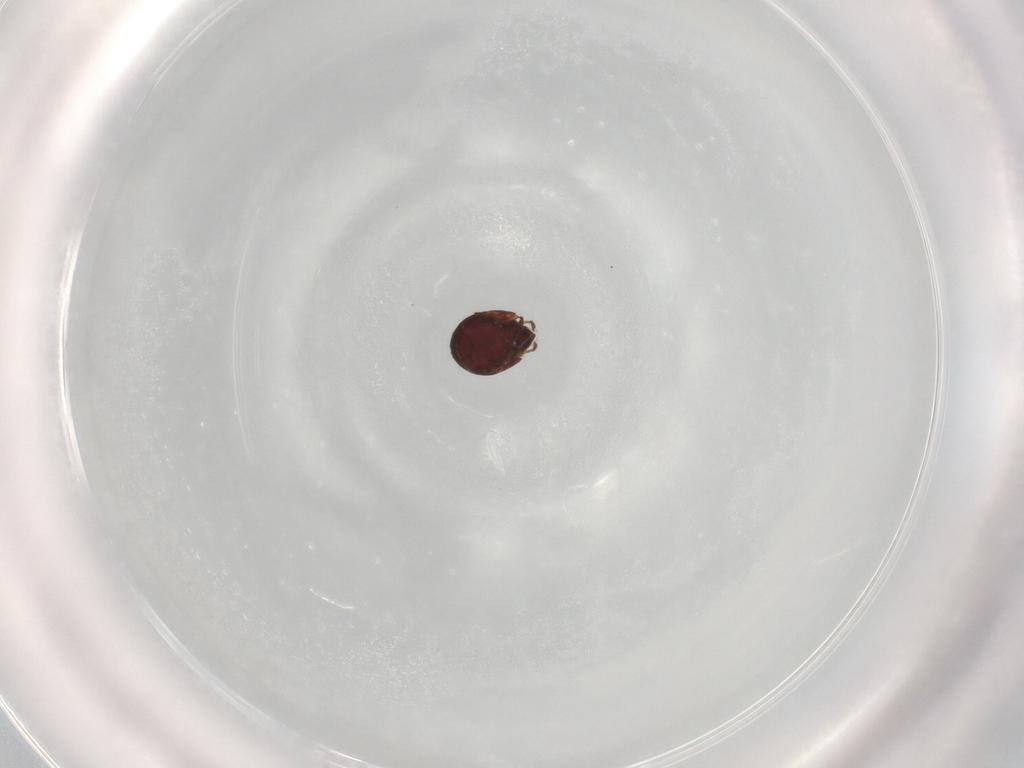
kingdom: Animalia
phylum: Arthropoda
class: Arachnida
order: Sarcoptiformes
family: Humerobatidae
